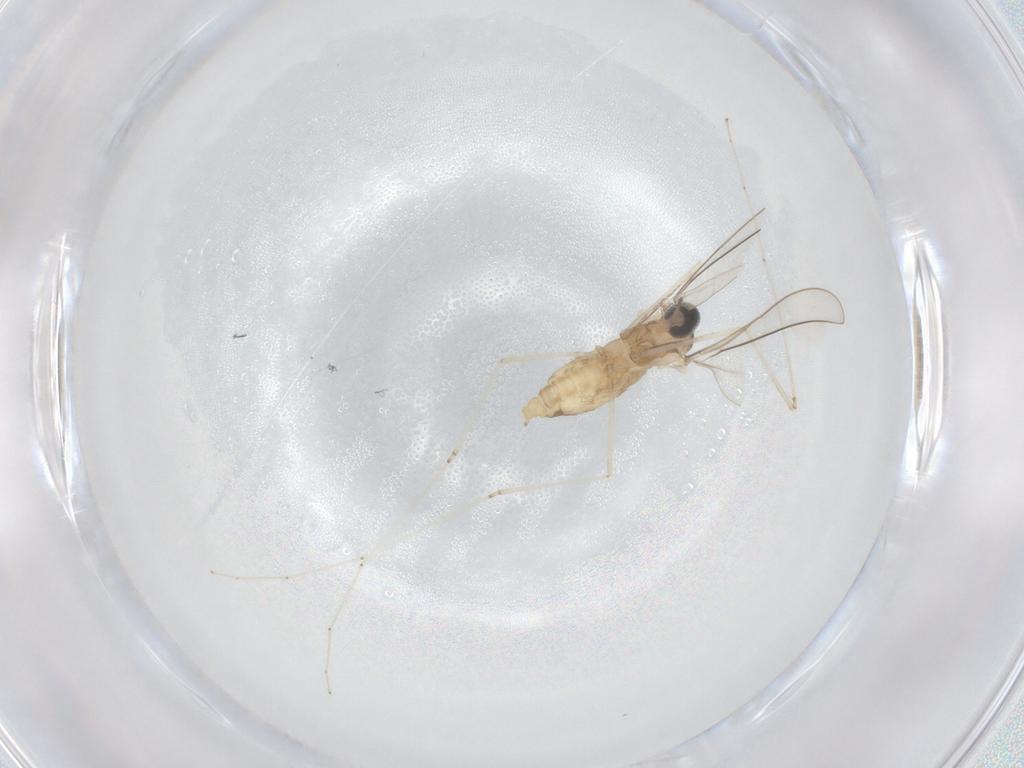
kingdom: Animalia
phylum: Arthropoda
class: Insecta
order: Diptera
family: Cecidomyiidae
